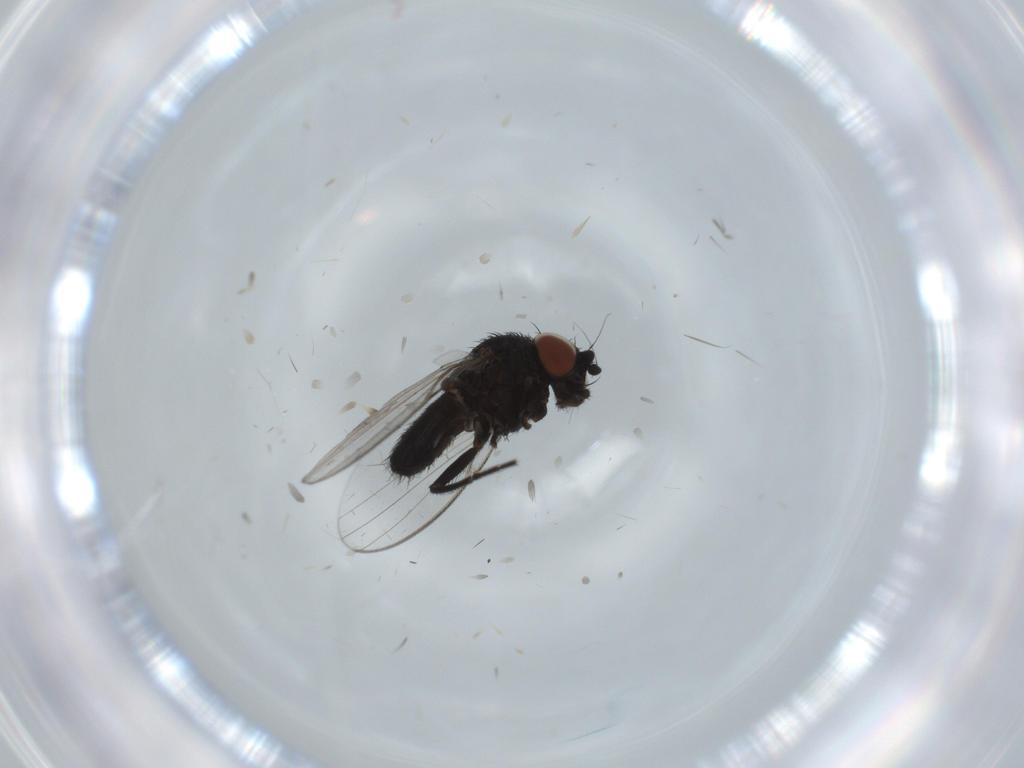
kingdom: Animalia
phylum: Arthropoda
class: Insecta
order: Diptera
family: Milichiidae
